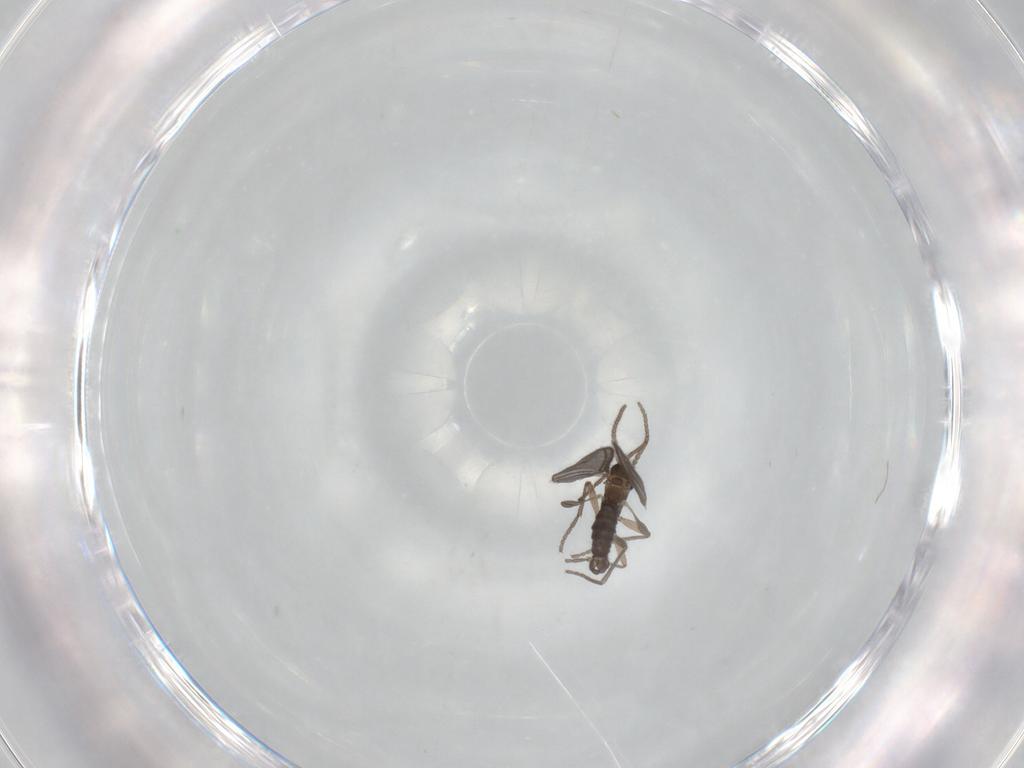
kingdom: Animalia
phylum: Arthropoda
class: Insecta
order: Diptera
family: Sciaridae
